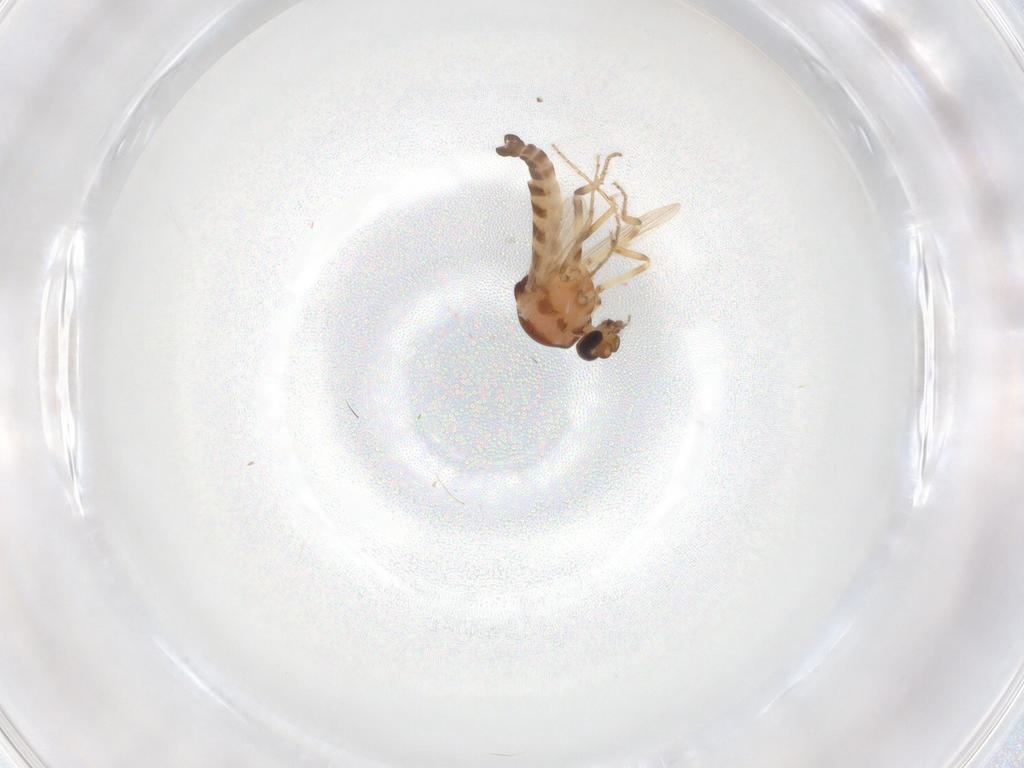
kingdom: Animalia
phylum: Arthropoda
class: Insecta
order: Diptera
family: Ceratopogonidae
